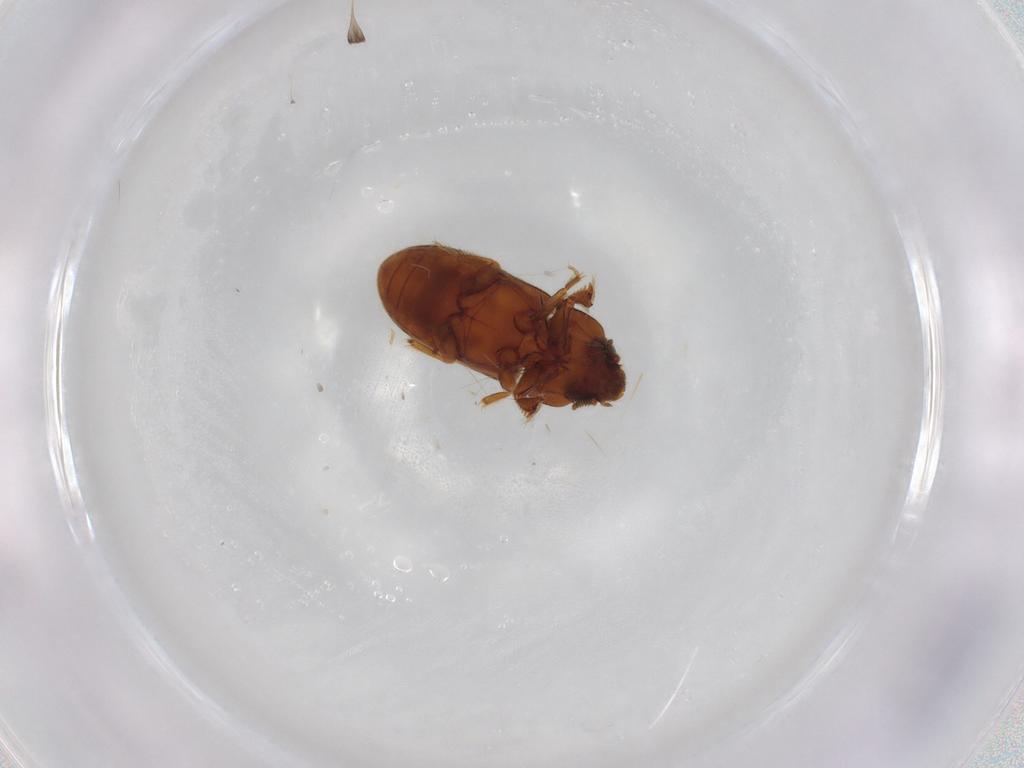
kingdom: Animalia
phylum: Arthropoda
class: Insecta
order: Coleoptera
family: Heteroceridae
